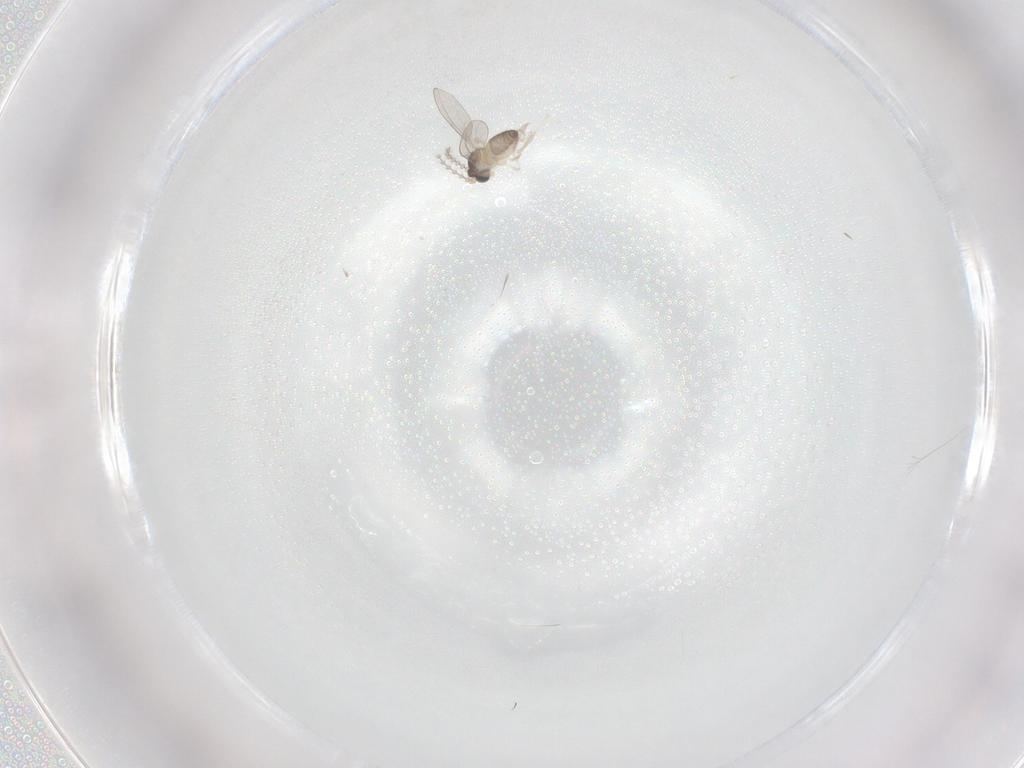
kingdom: Animalia
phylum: Arthropoda
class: Insecta
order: Diptera
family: Cecidomyiidae
